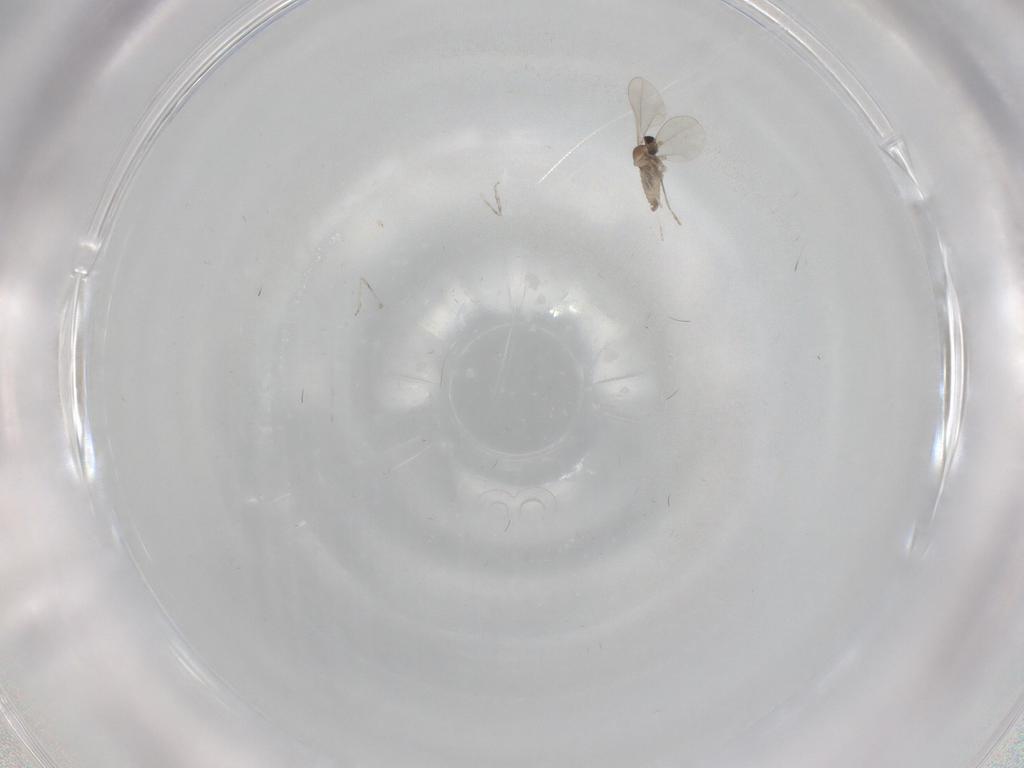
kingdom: Animalia
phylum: Arthropoda
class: Insecta
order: Diptera
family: Cecidomyiidae
